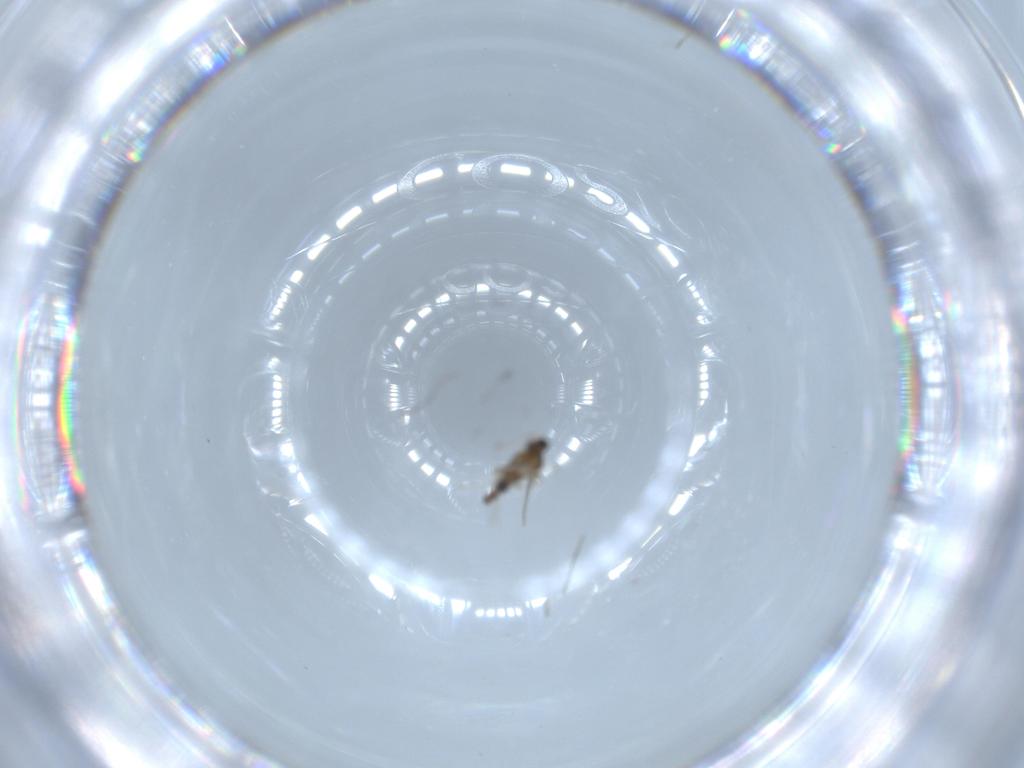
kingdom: Animalia
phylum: Arthropoda
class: Insecta
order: Diptera
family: Cecidomyiidae
